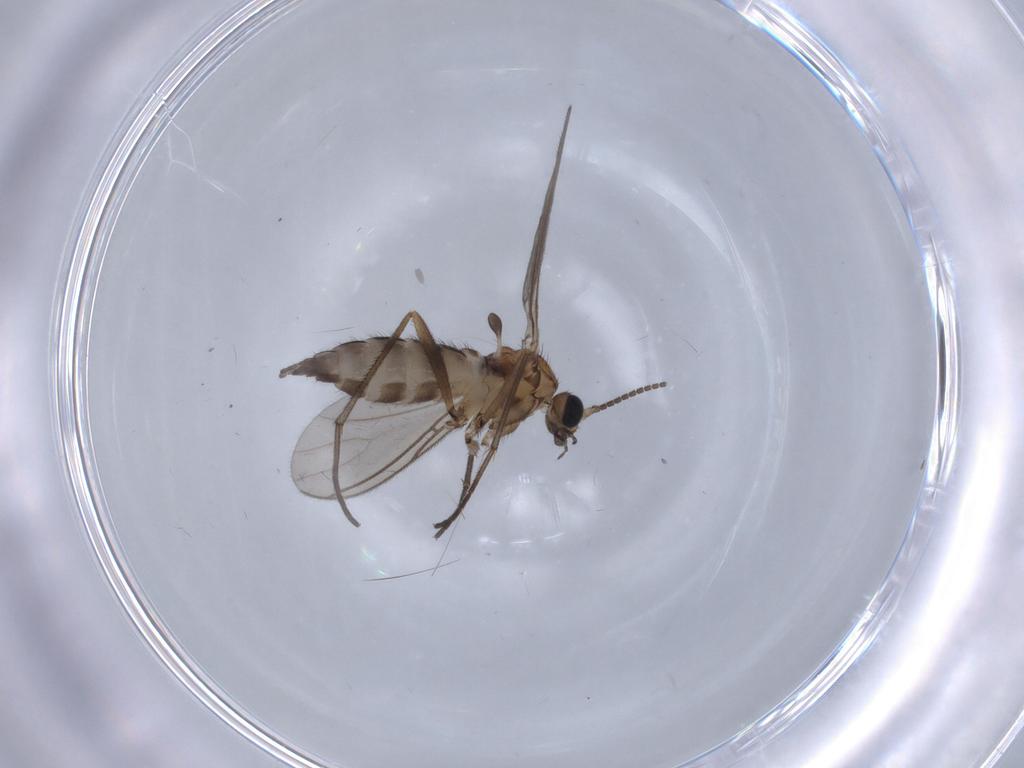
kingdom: Animalia
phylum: Arthropoda
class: Insecta
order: Diptera
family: Sciaridae
